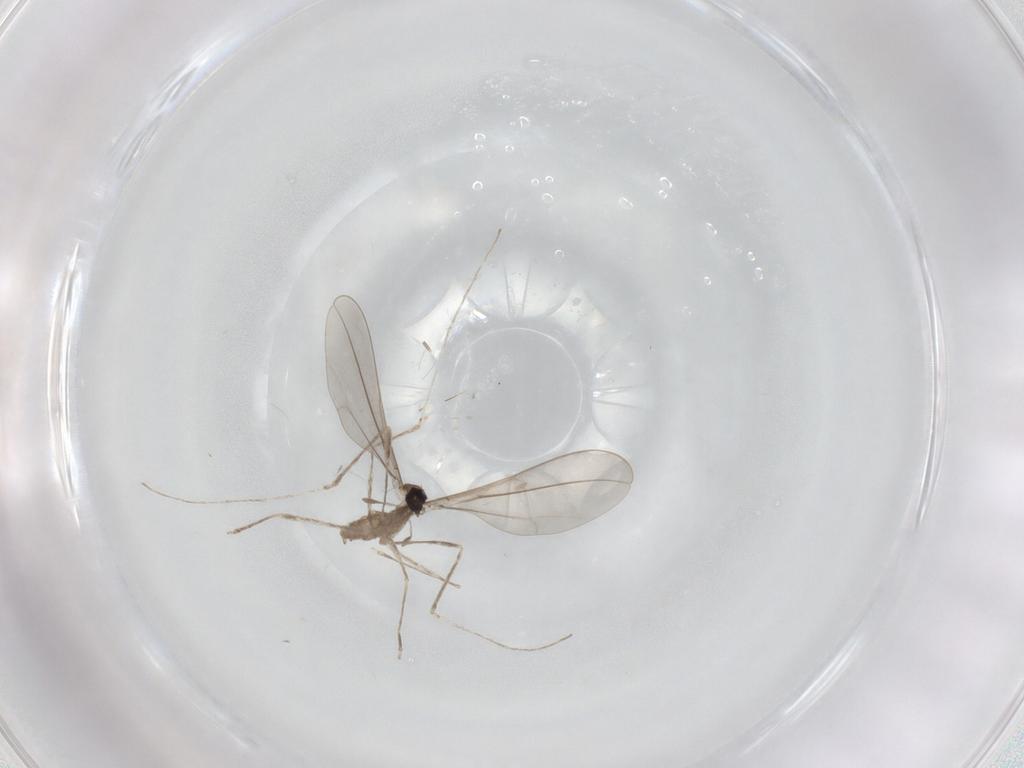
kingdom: Animalia
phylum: Arthropoda
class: Insecta
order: Diptera
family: Cecidomyiidae
